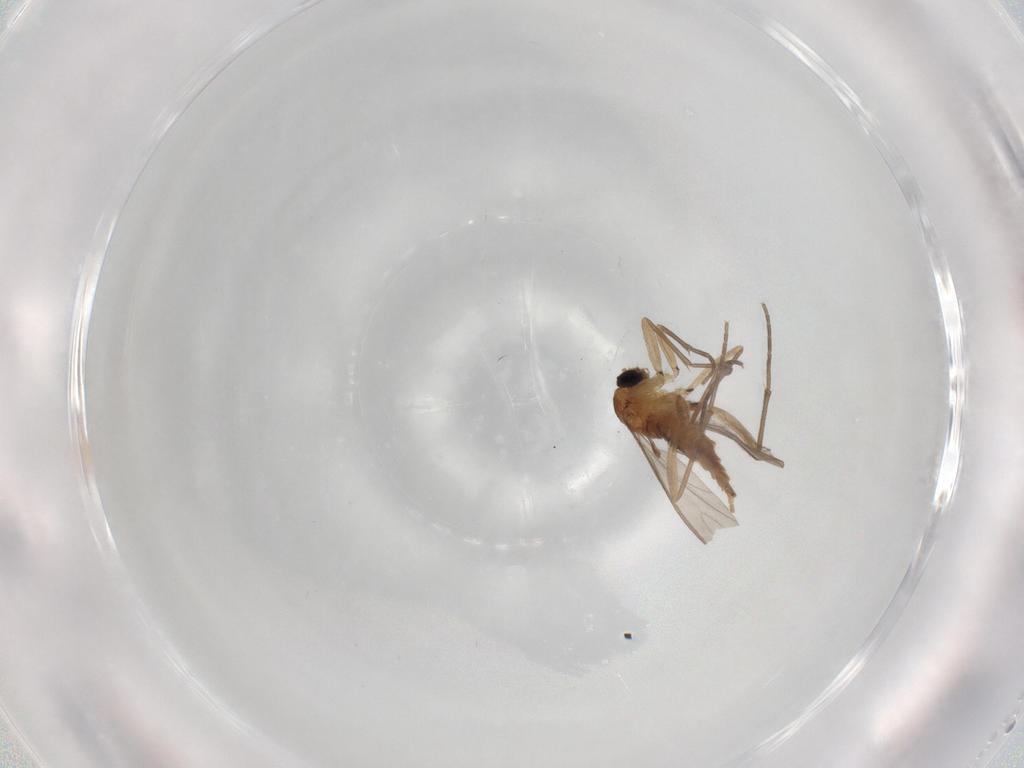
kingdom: Animalia
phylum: Arthropoda
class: Insecta
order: Diptera
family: Sciaridae
